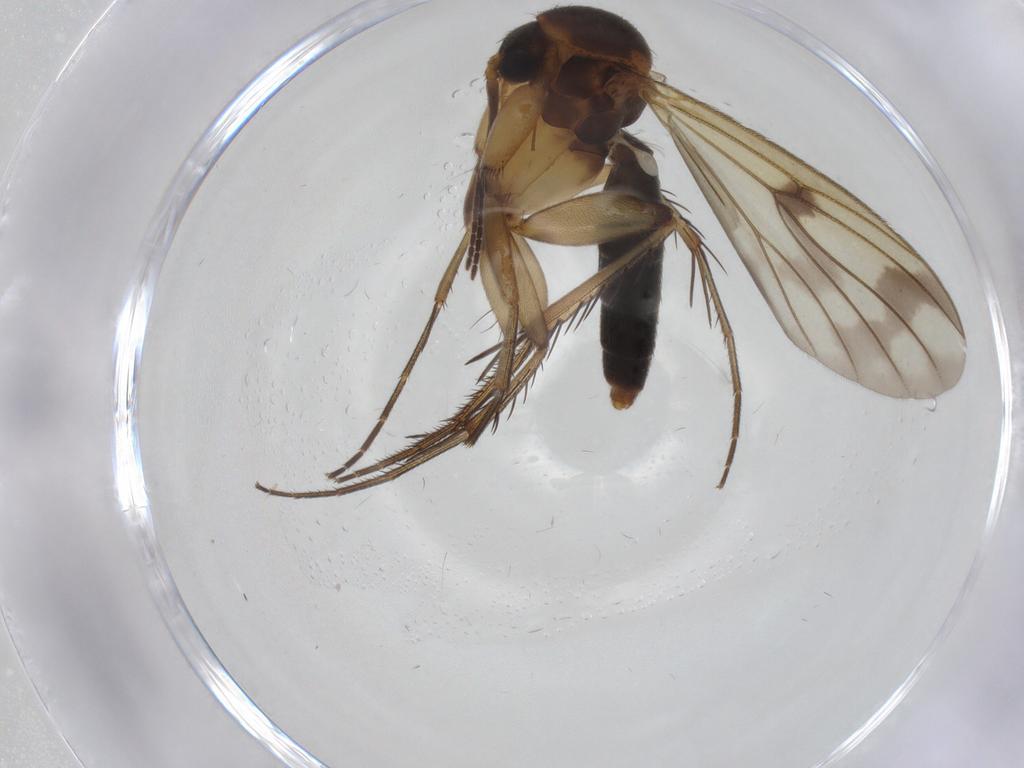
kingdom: Animalia
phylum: Arthropoda
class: Insecta
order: Diptera
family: Chironomidae
